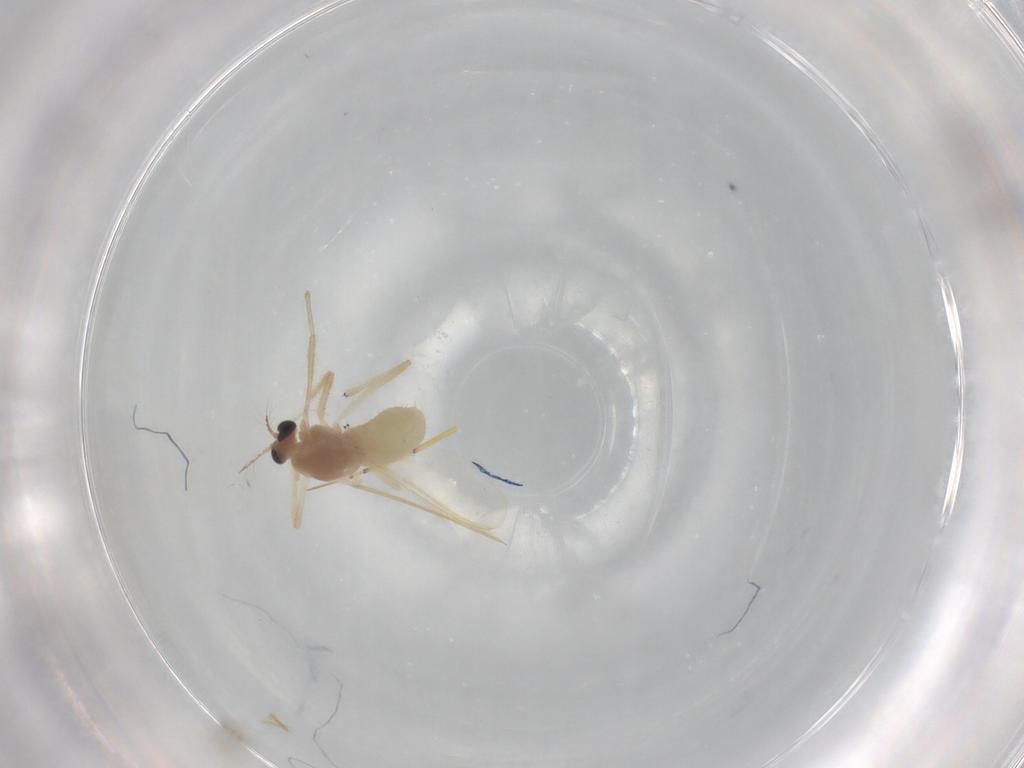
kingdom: Animalia
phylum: Arthropoda
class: Insecta
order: Diptera
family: Chironomidae
